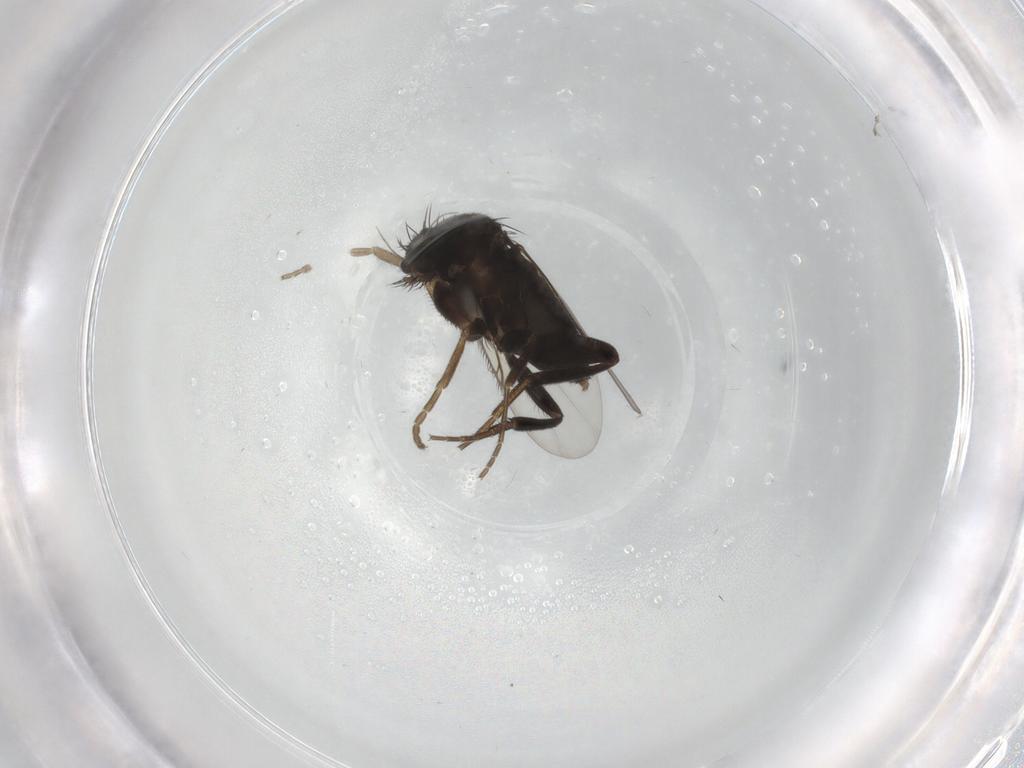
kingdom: Animalia
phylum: Arthropoda
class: Insecta
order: Diptera
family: Phoridae
